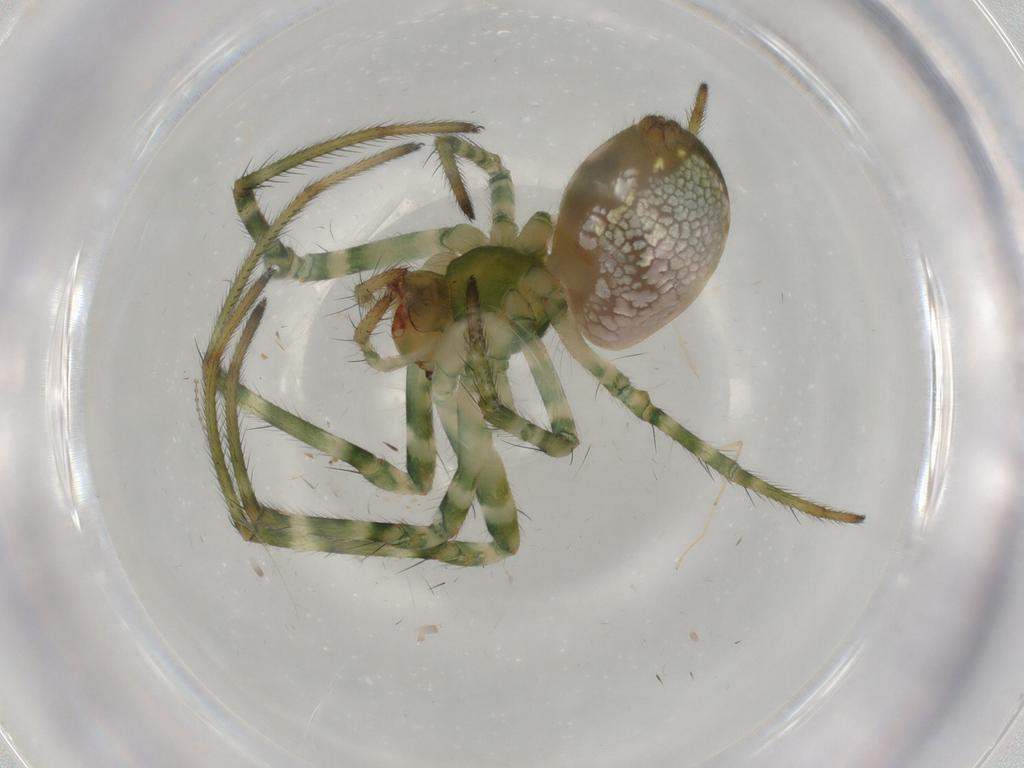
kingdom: Animalia
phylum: Arthropoda
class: Arachnida
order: Araneae
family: Tetragnathidae
